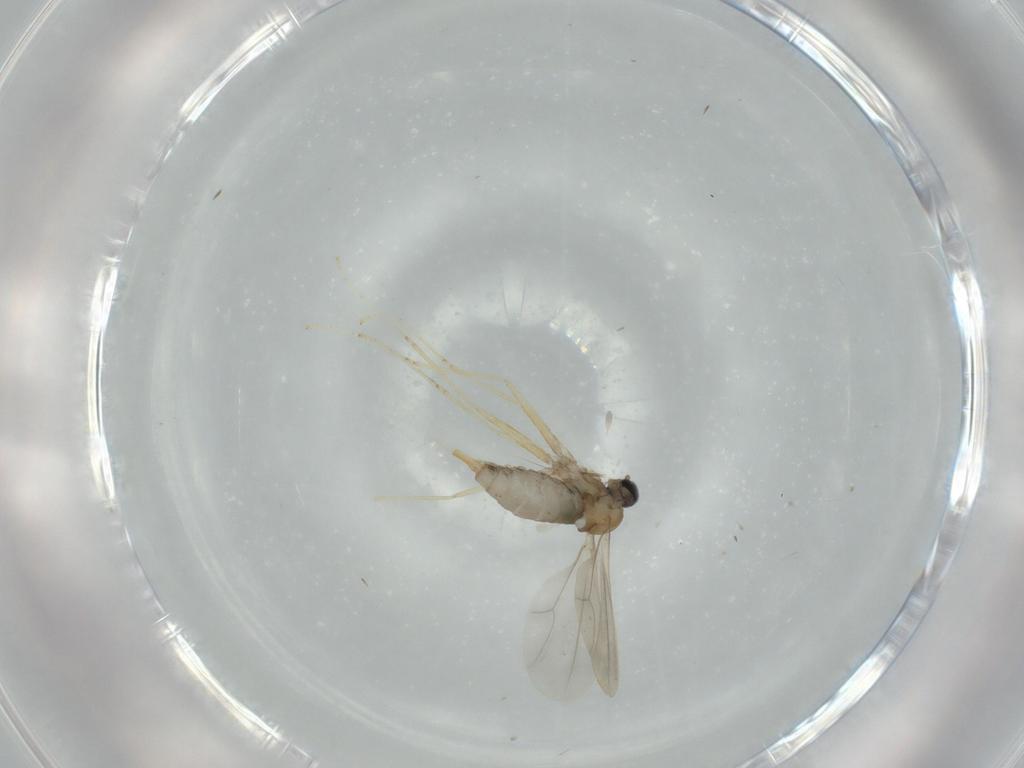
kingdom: Animalia
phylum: Arthropoda
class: Insecta
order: Diptera
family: Cecidomyiidae
